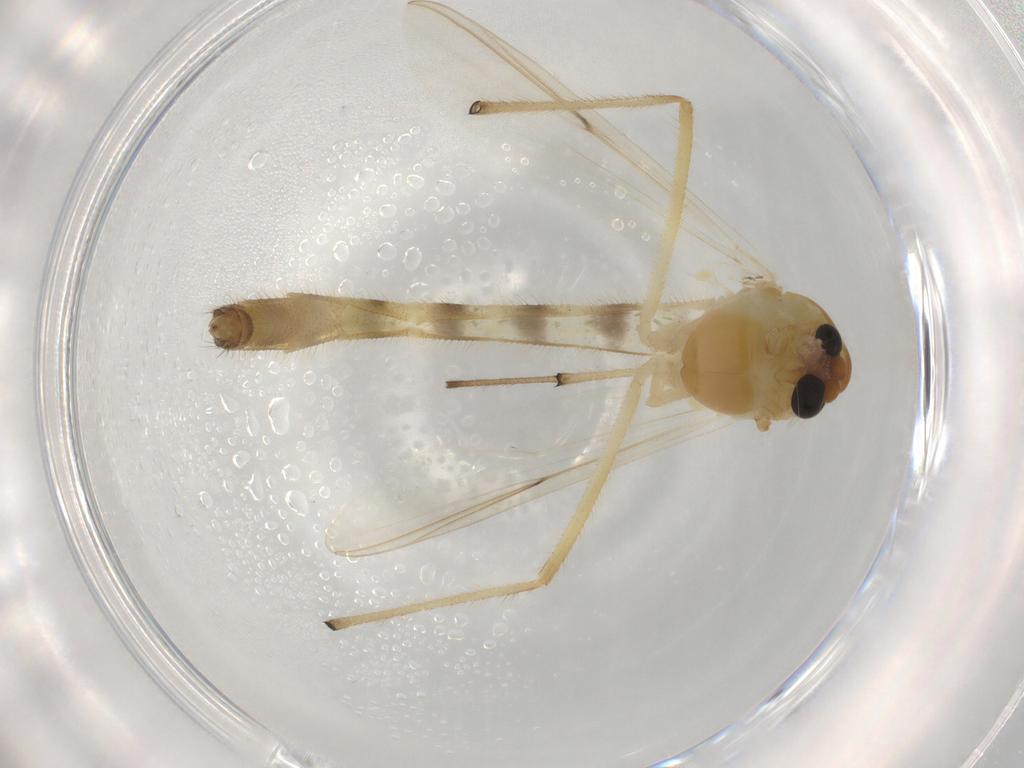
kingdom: Animalia
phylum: Arthropoda
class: Insecta
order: Diptera
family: Chironomidae
